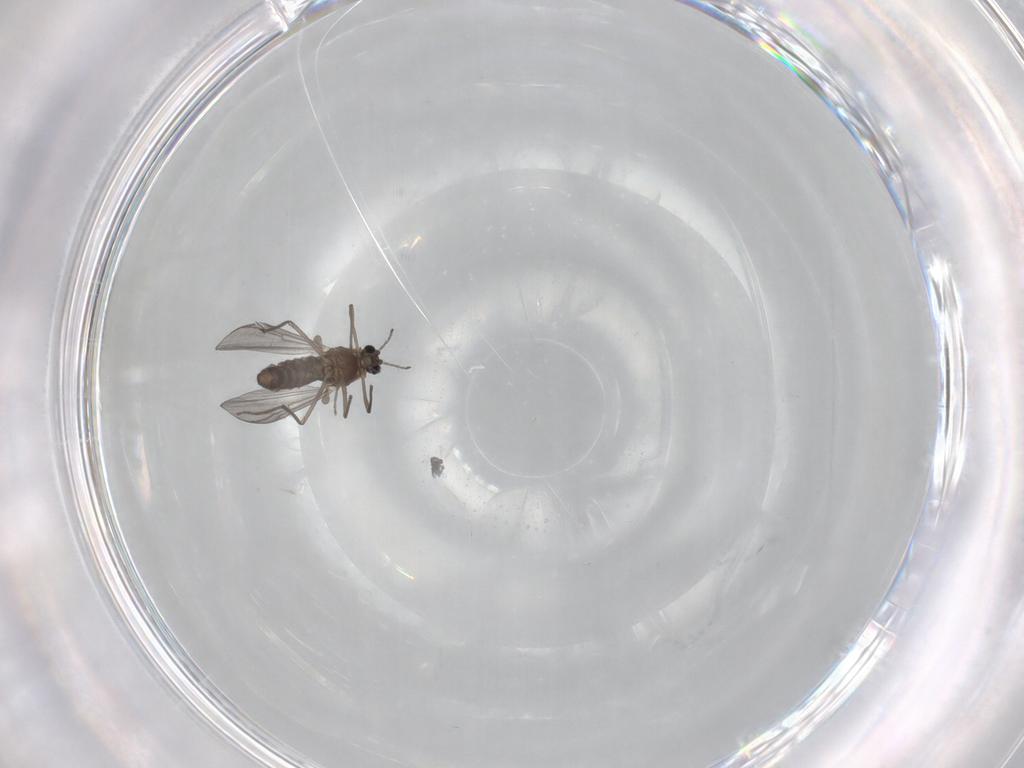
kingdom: Animalia
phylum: Arthropoda
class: Insecta
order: Diptera
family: Chironomidae
